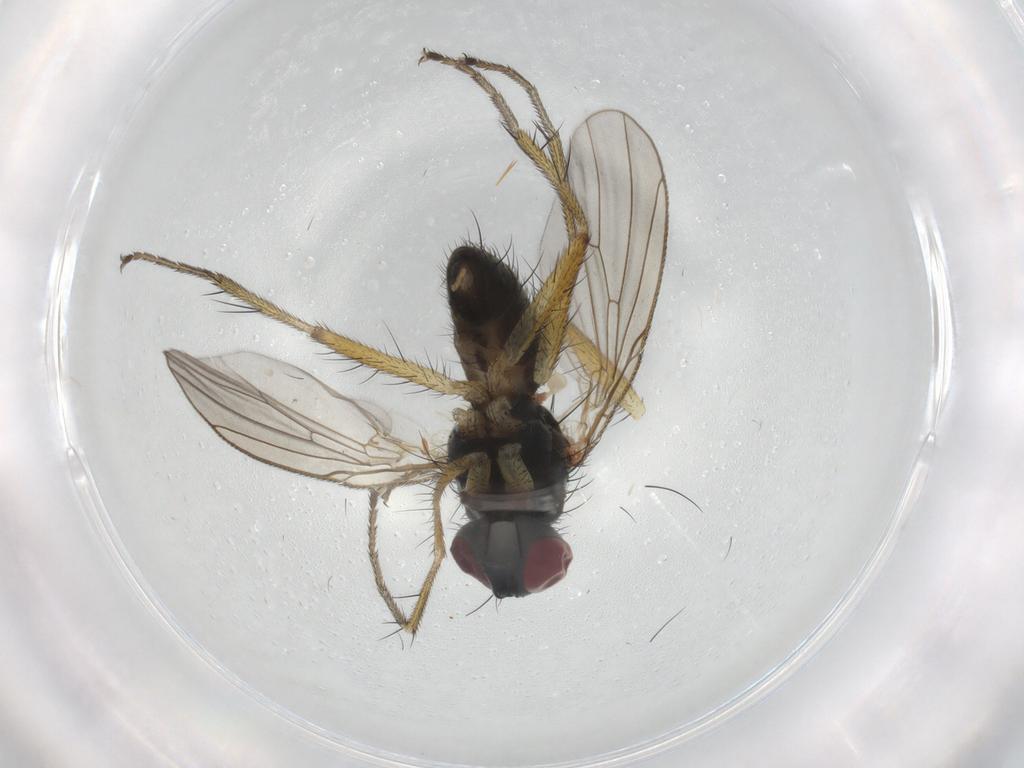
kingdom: Animalia
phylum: Arthropoda
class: Insecta
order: Diptera
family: Muscidae
